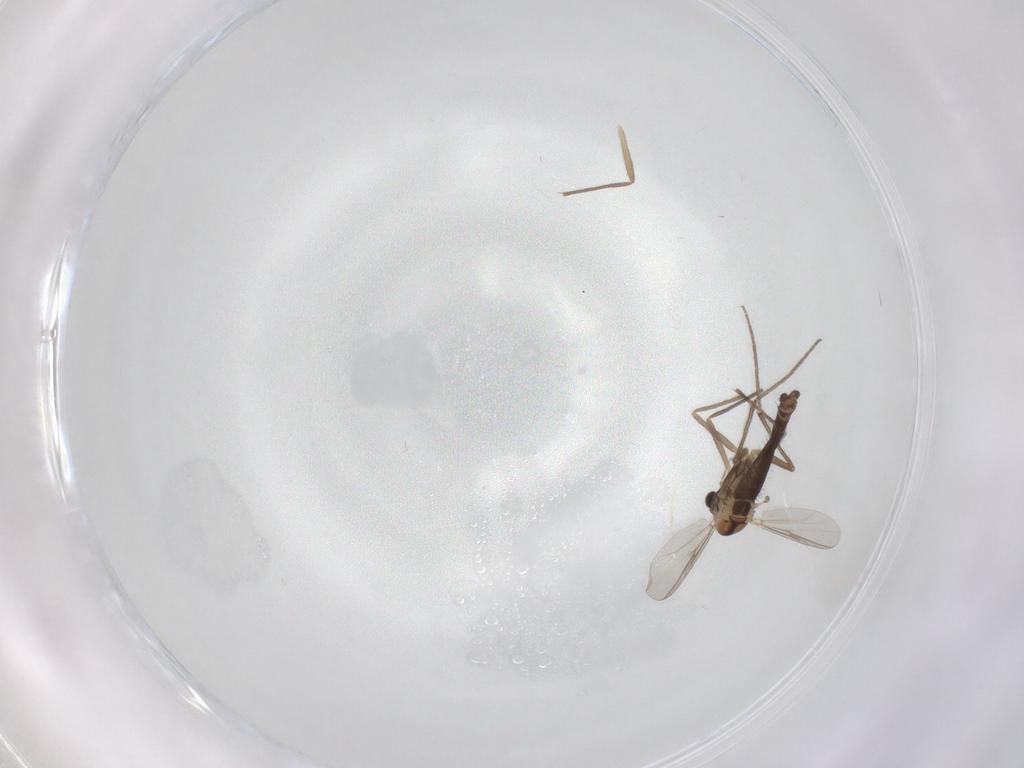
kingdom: Animalia
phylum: Arthropoda
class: Insecta
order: Diptera
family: Chironomidae
